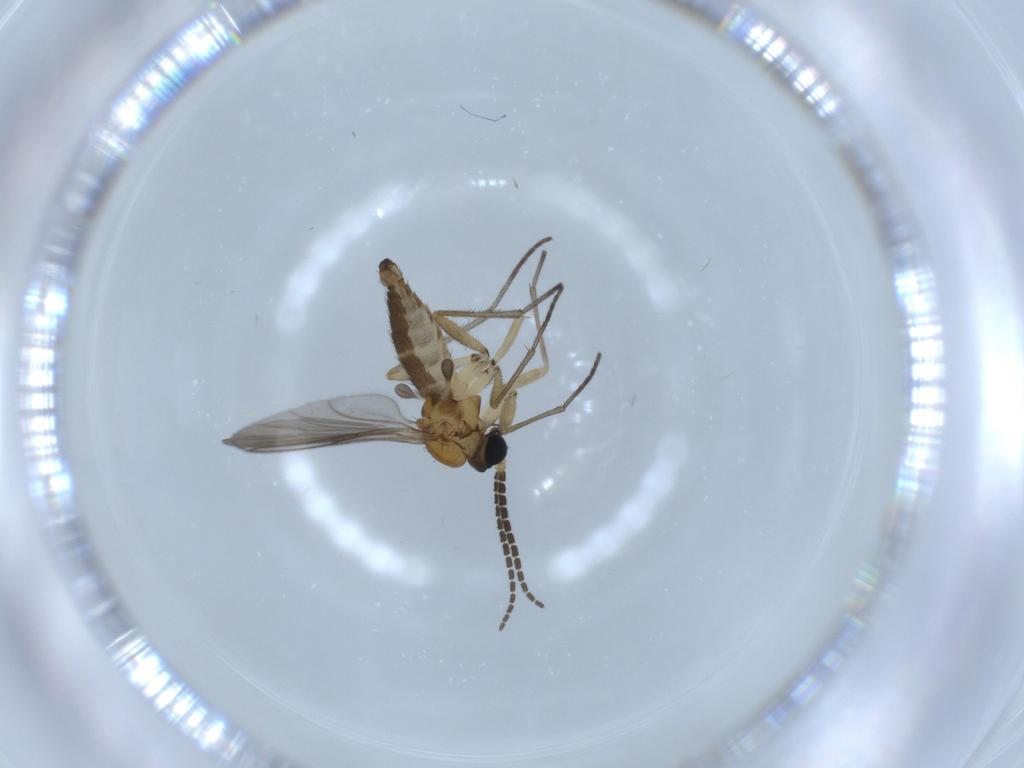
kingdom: Animalia
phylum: Arthropoda
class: Insecta
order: Diptera
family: Sciaridae
